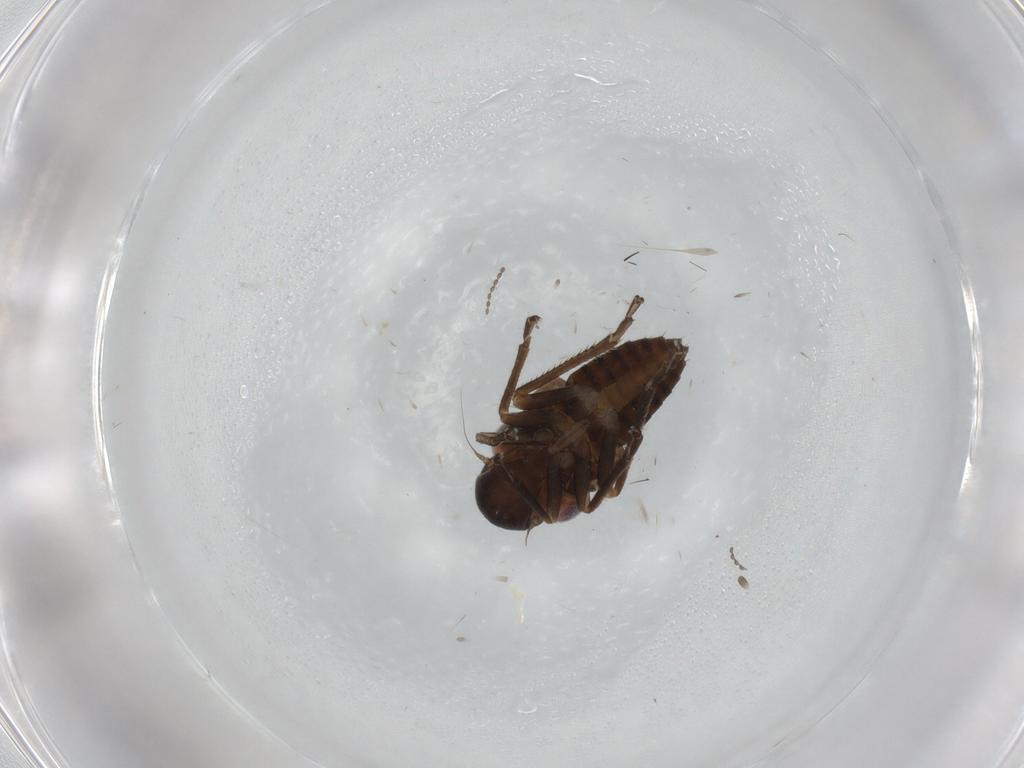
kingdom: Animalia
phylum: Arthropoda
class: Insecta
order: Hemiptera
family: Cicadellidae
